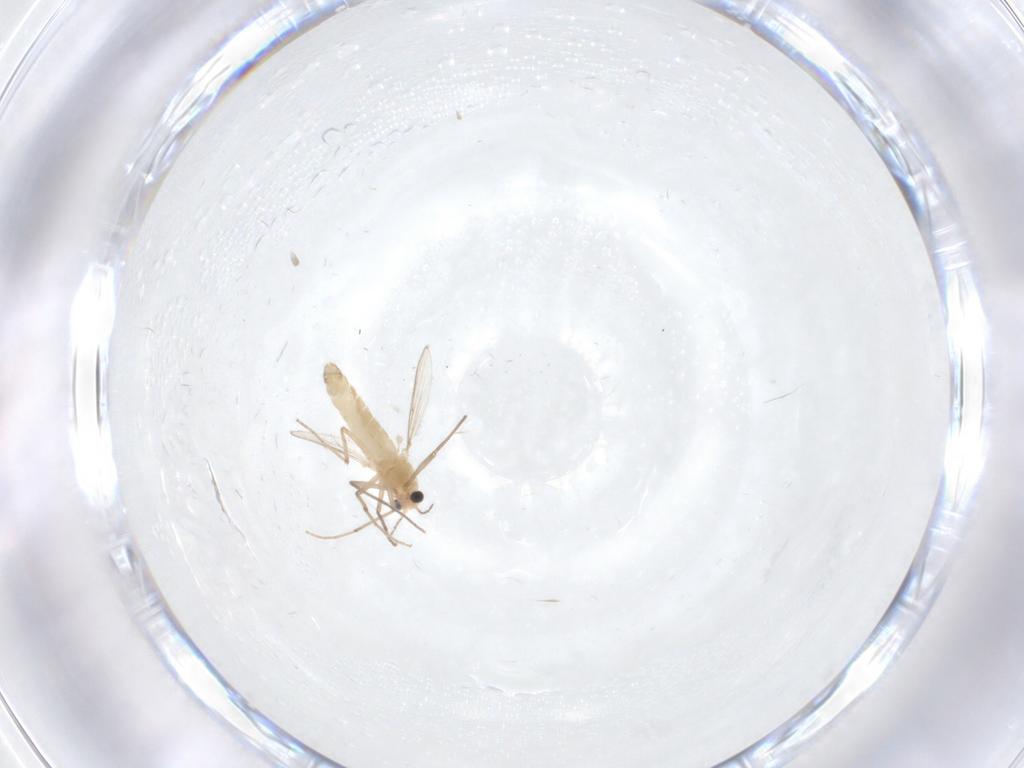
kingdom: Animalia
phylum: Arthropoda
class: Insecta
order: Diptera
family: Chironomidae
